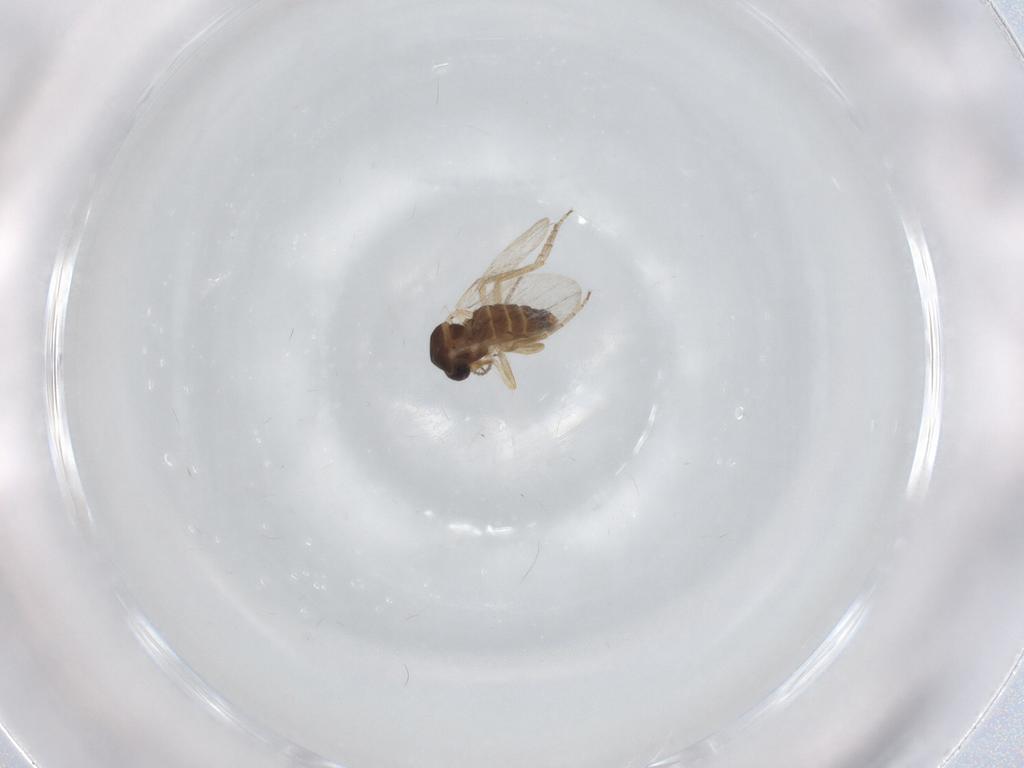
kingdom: Animalia
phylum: Arthropoda
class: Insecta
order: Diptera
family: Ceratopogonidae
